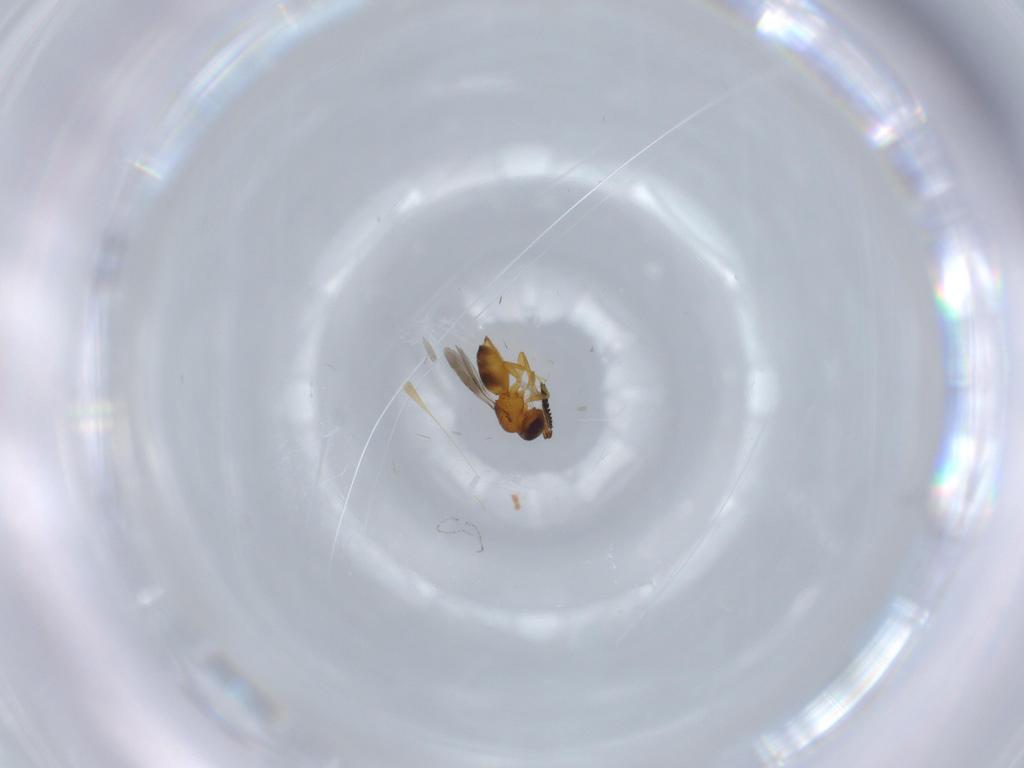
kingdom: Animalia
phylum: Arthropoda
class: Insecta
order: Hymenoptera
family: Ceraphronidae
